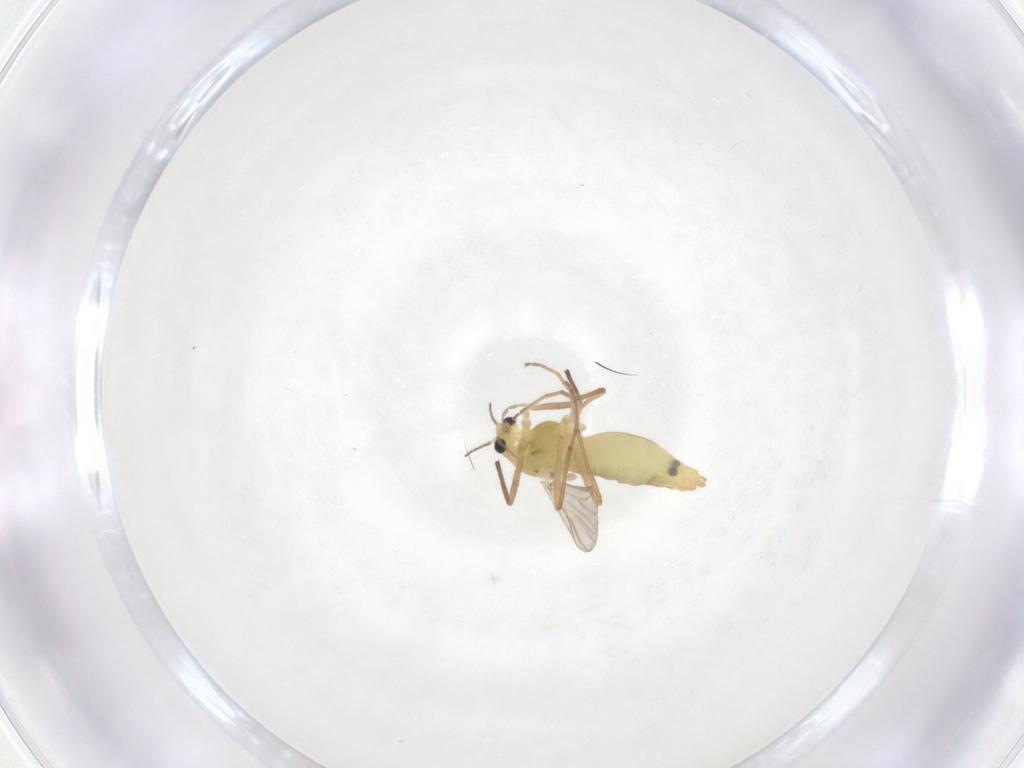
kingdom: Animalia
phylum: Arthropoda
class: Insecta
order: Diptera
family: Chironomidae
